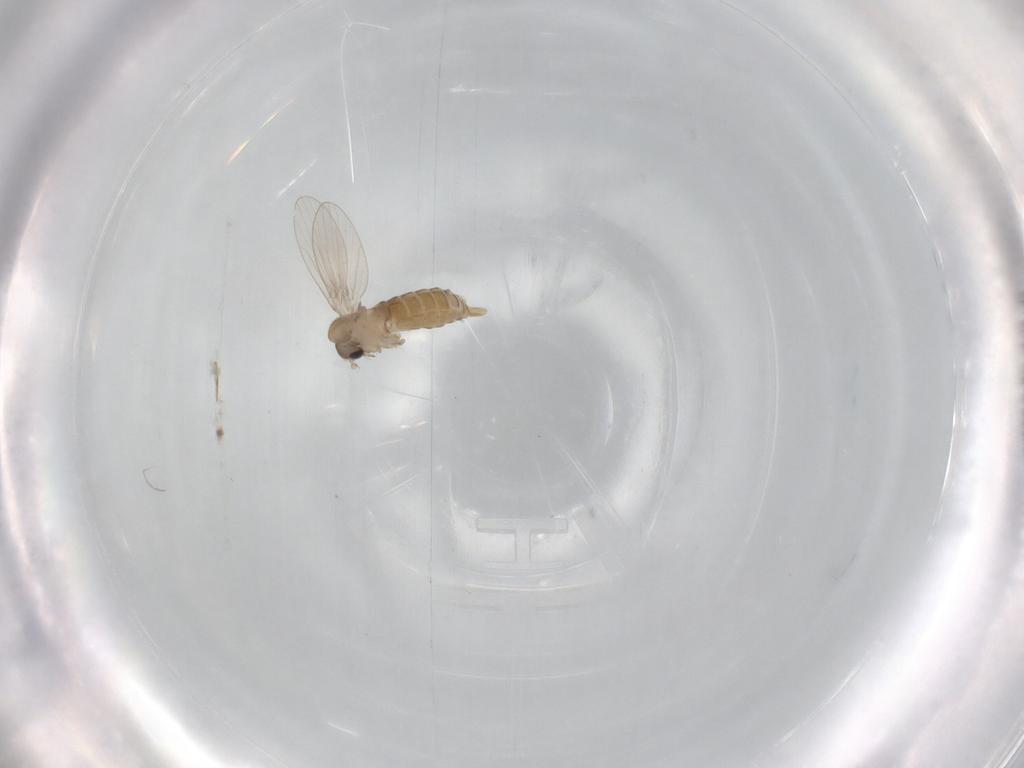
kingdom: Animalia
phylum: Arthropoda
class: Insecta
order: Diptera
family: Psychodidae
